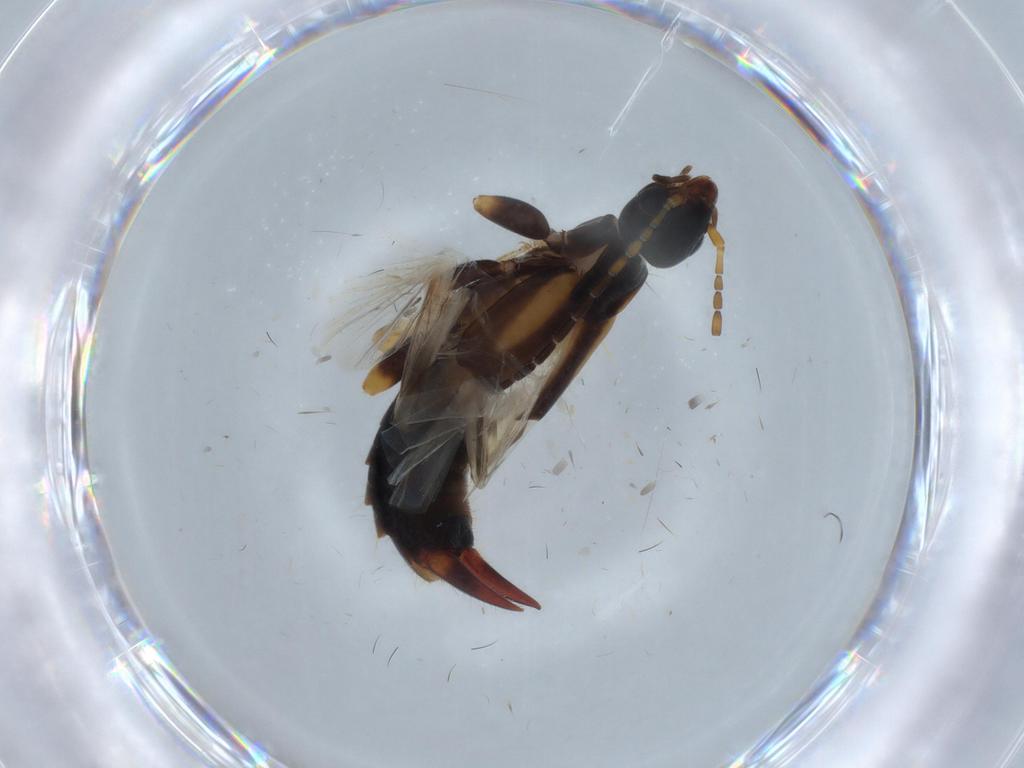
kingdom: Animalia
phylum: Arthropoda
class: Insecta
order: Dermaptera
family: Labiduridae
